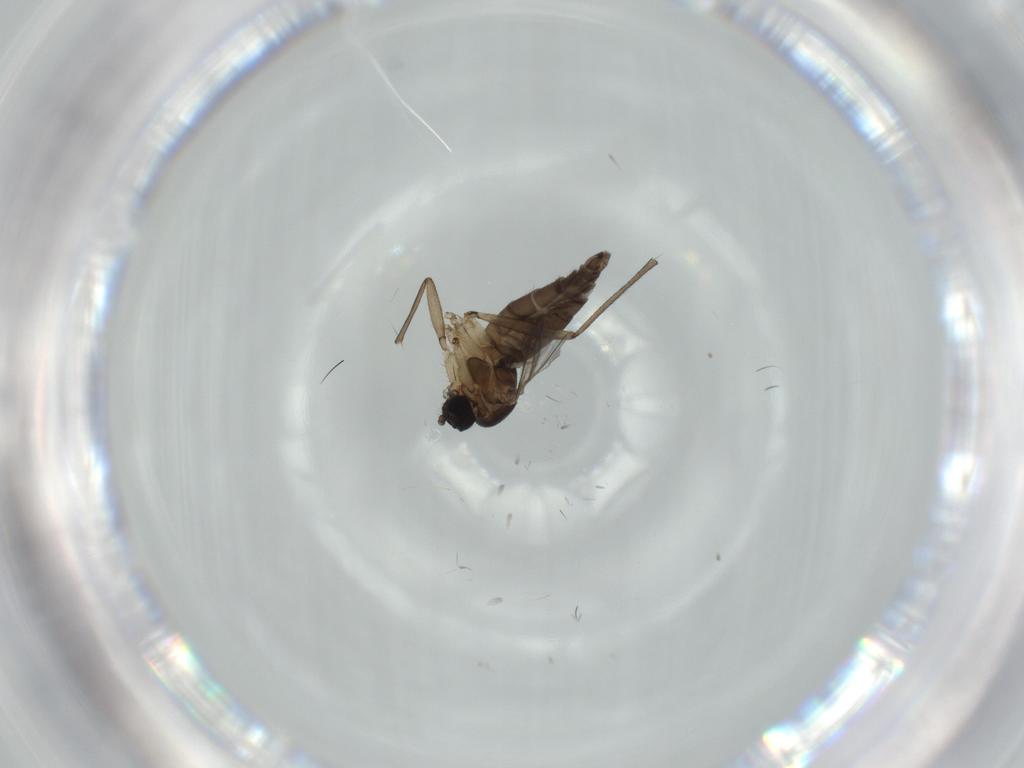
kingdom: Animalia
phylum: Arthropoda
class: Insecta
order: Diptera
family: Sciaridae
